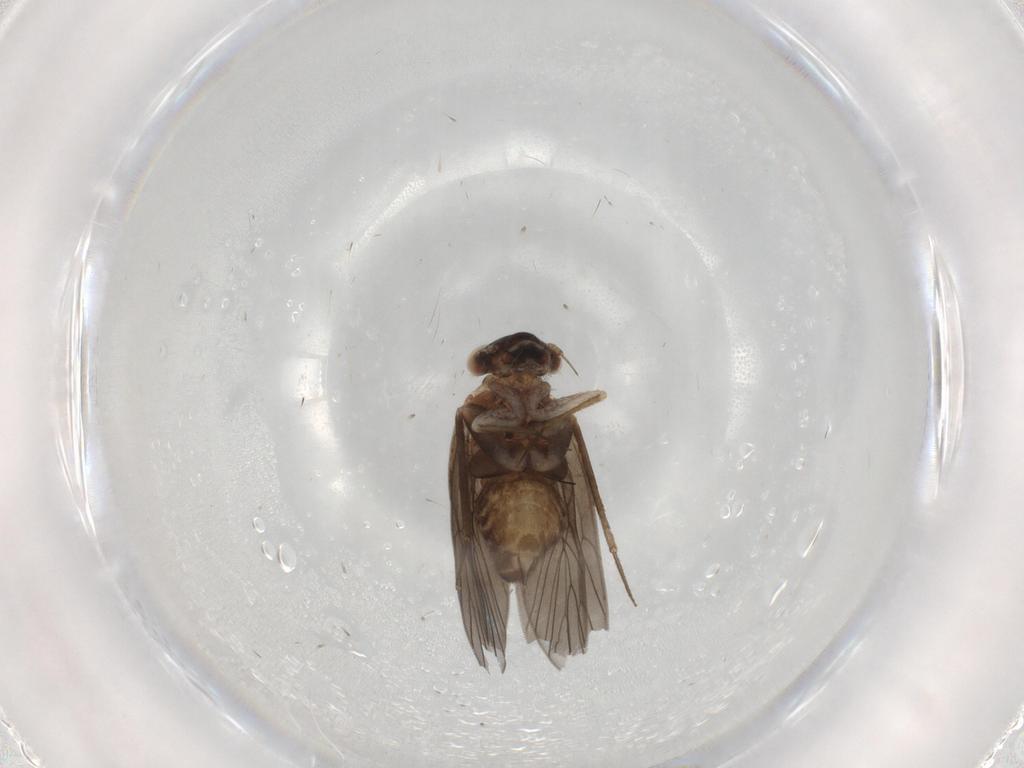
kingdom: Animalia
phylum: Arthropoda
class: Insecta
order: Psocodea
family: Lepidopsocidae
